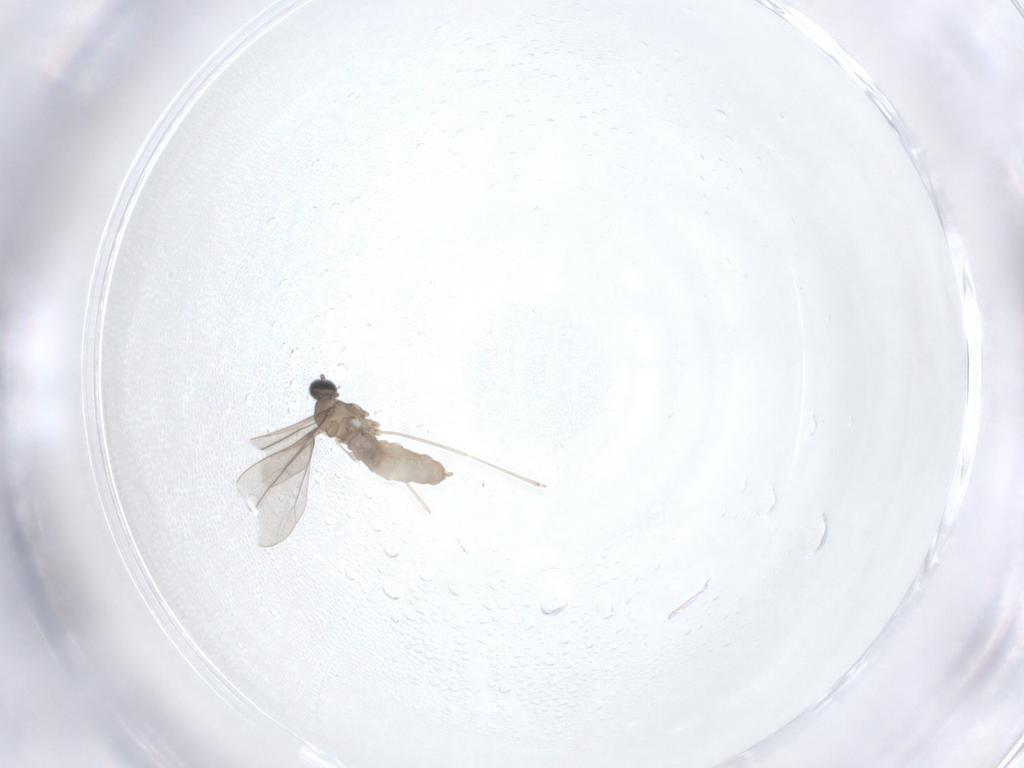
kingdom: Animalia
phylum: Arthropoda
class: Insecta
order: Diptera
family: Cecidomyiidae
